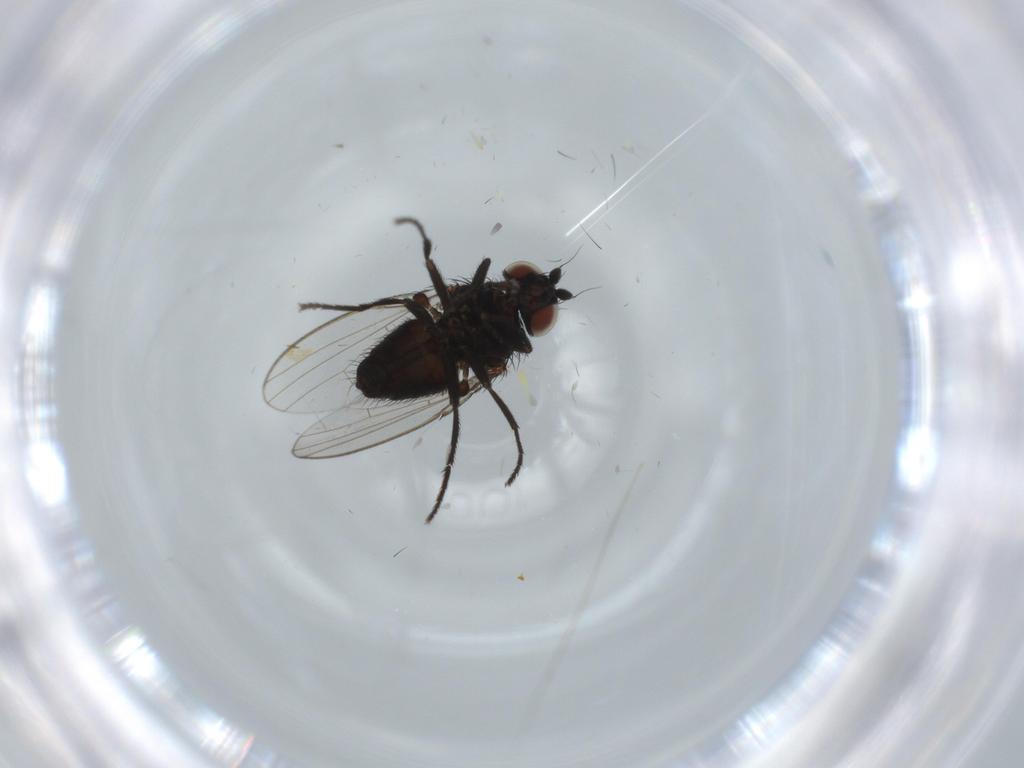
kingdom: Animalia
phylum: Arthropoda
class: Insecta
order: Diptera
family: Milichiidae
